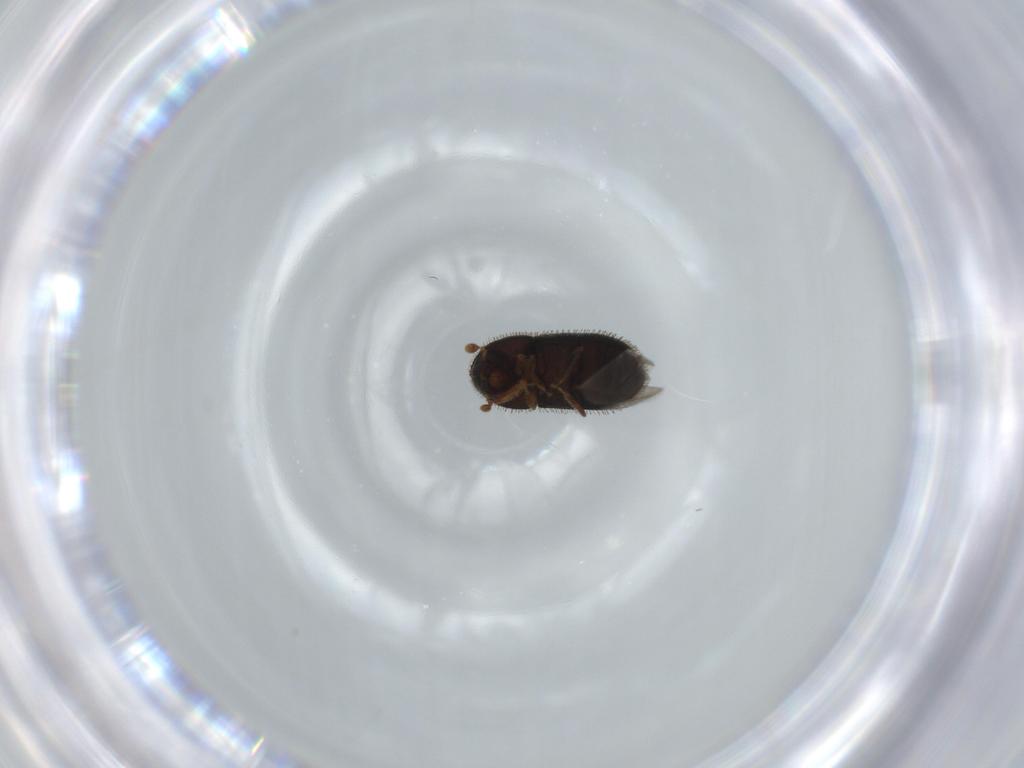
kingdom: Animalia
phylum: Arthropoda
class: Insecta
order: Coleoptera
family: Curculionidae
